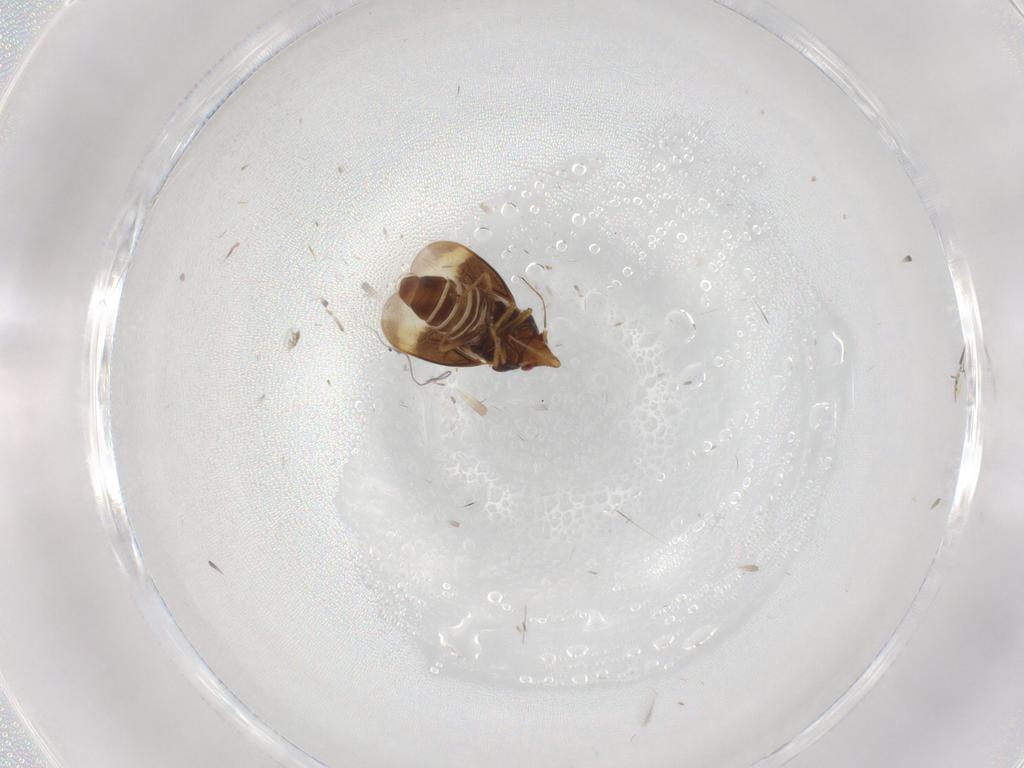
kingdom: Animalia
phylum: Arthropoda
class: Insecta
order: Hemiptera
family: Schizopteridae
